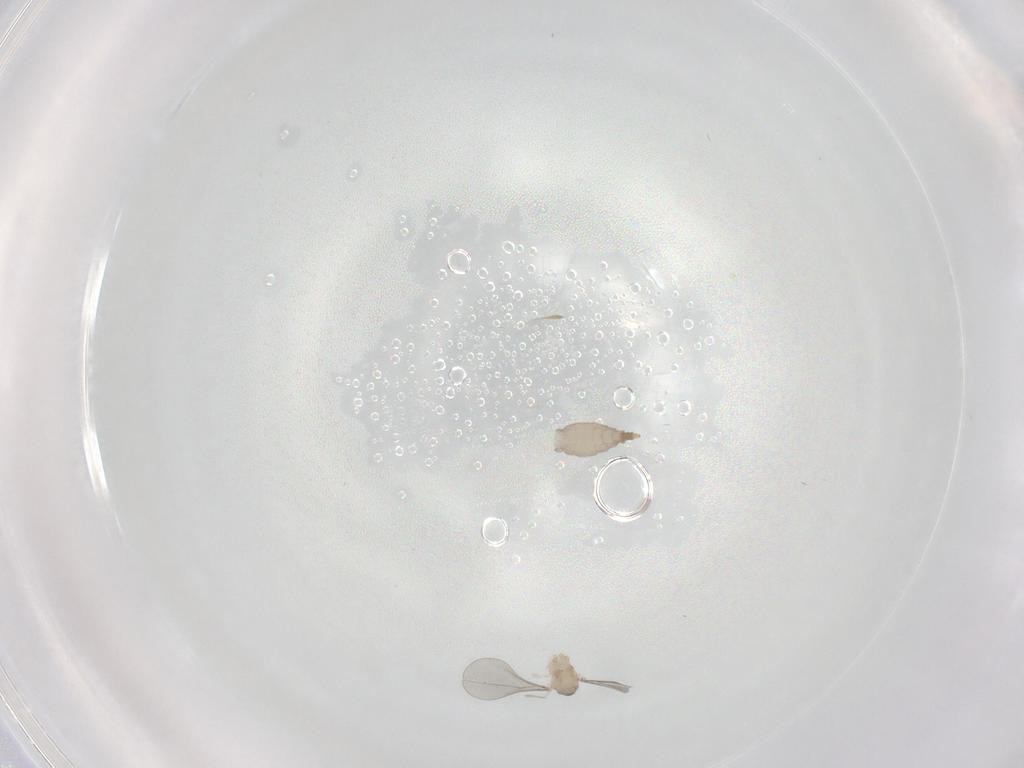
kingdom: Animalia
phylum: Arthropoda
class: Insecta
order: Diptera
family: Cecidomyiidae
